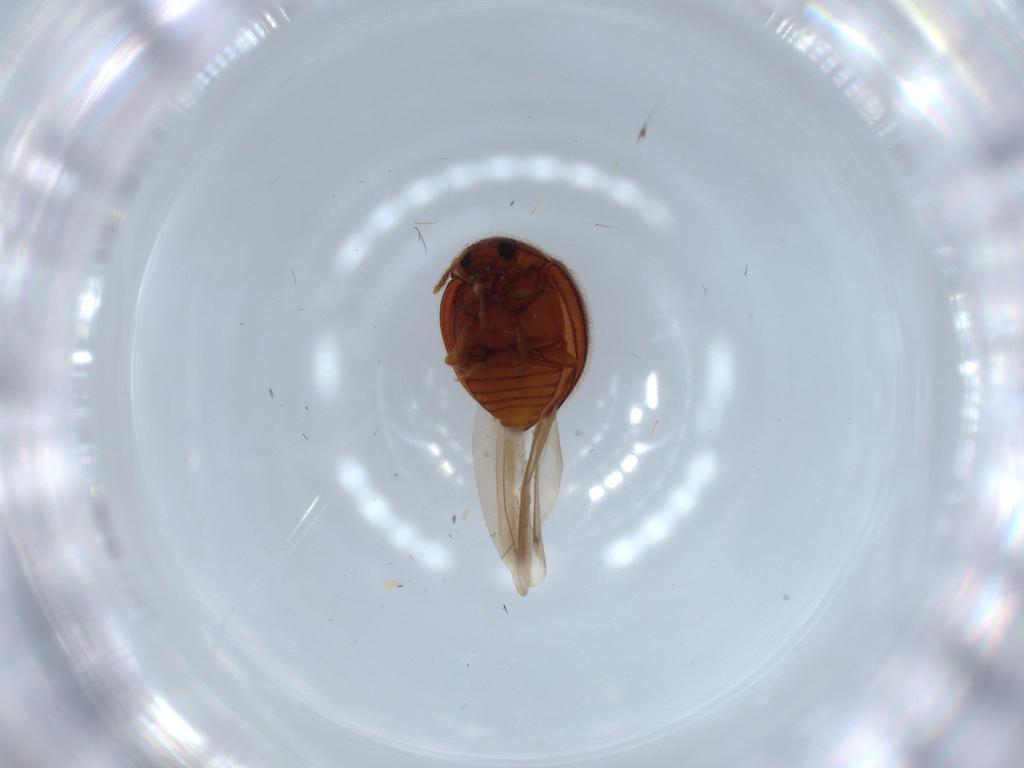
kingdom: Animalia
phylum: Arthropoda
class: Insecta
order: Coleoptera
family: Anamorphidae
